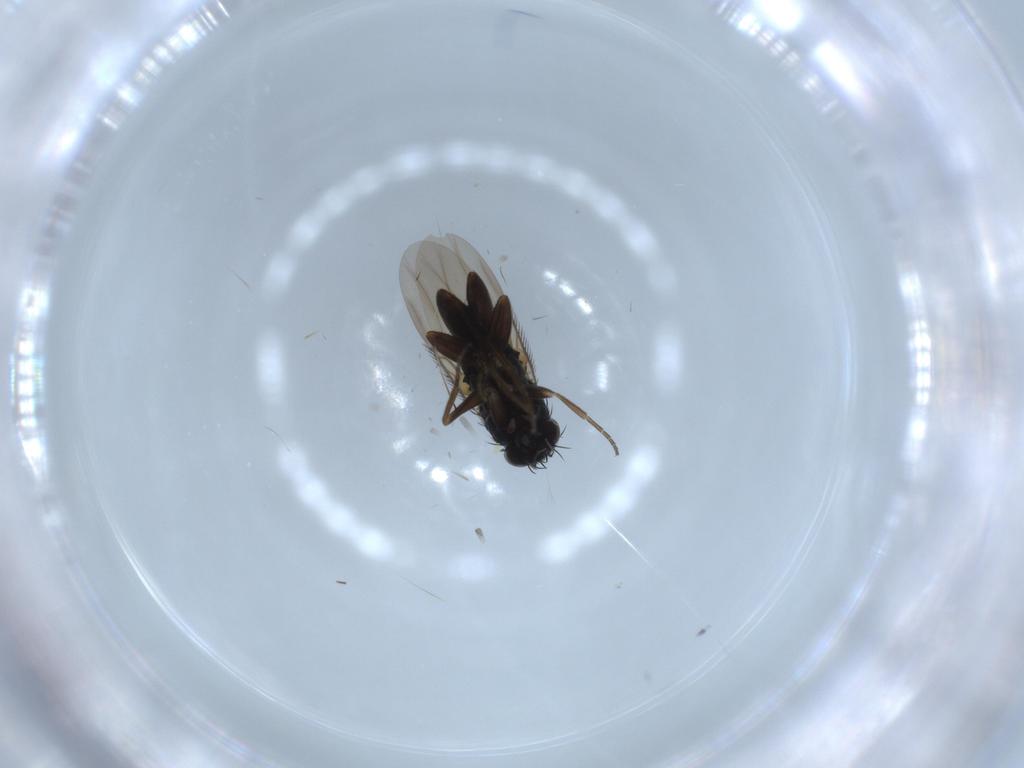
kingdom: Animalia
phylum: Arthropoda
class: Insecta
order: Diptera
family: Phoridae
